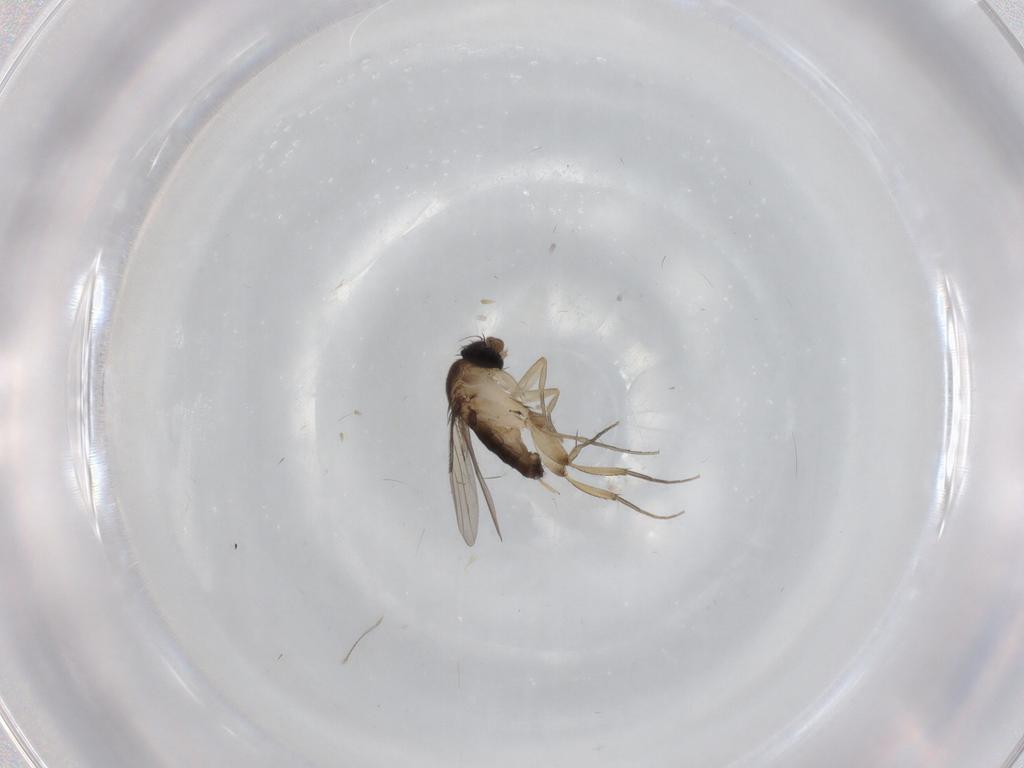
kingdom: Animalia
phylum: Arthropoda
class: Insecta
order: Diptera
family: Phoridae
